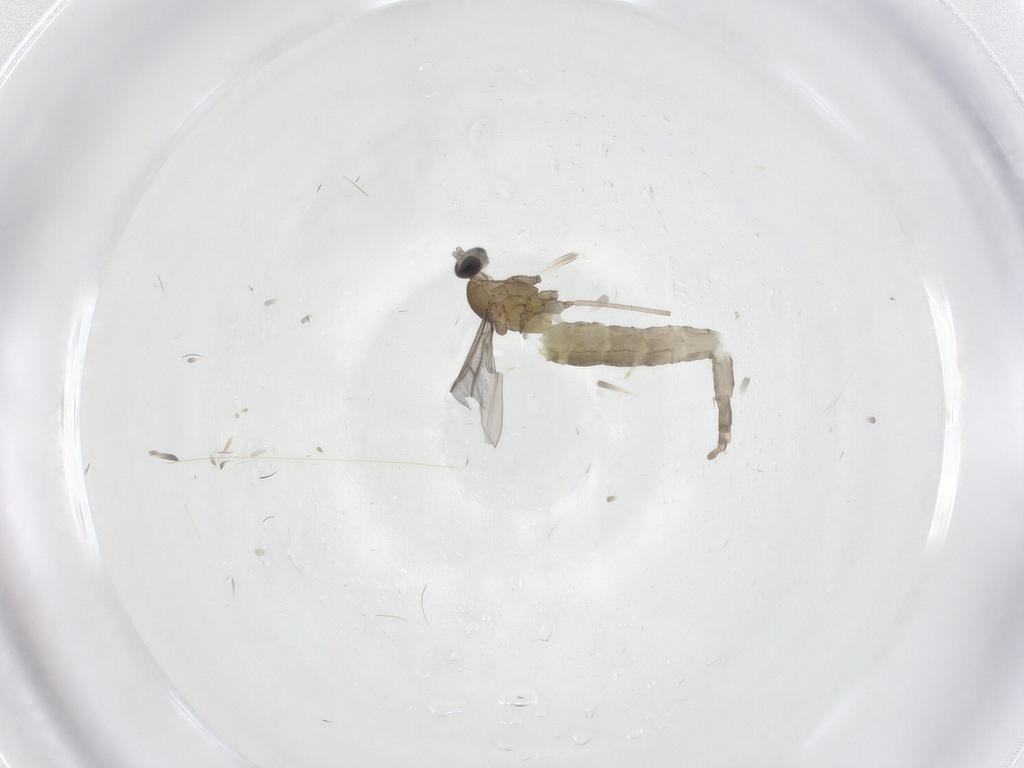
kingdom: Animalia
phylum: Arthropoda
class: Insecta
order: Diptera
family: Cecidomyiidae
